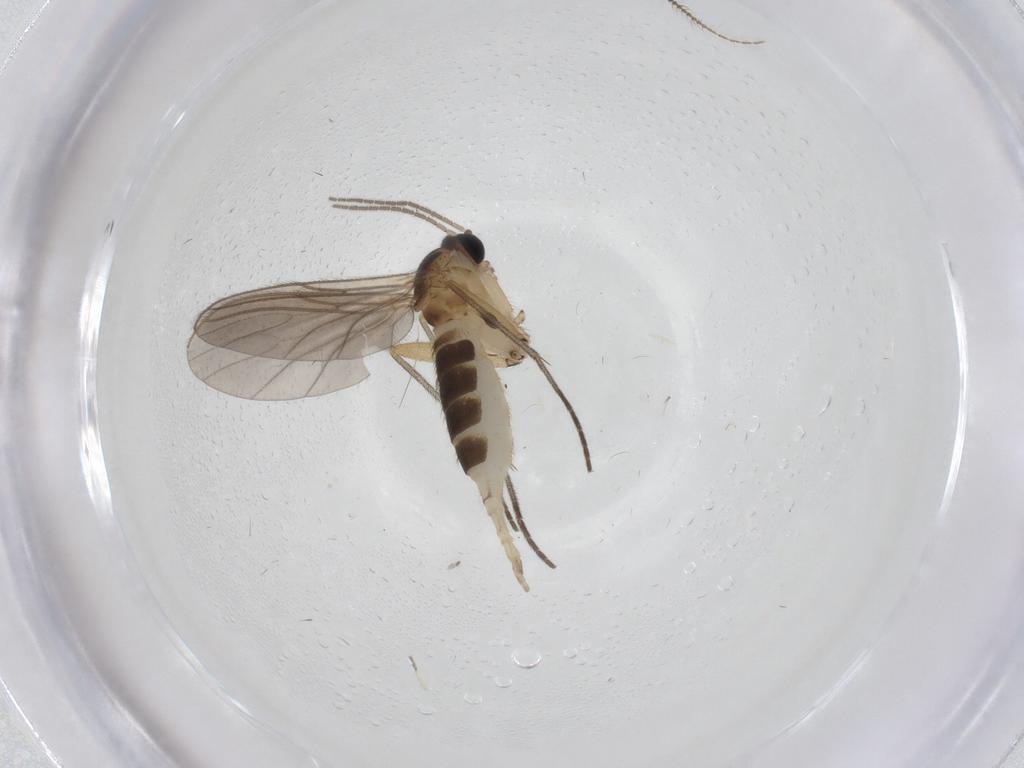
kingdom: Animalia
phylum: Arthropoda
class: Insecta
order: Diptera
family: Sciaridae
